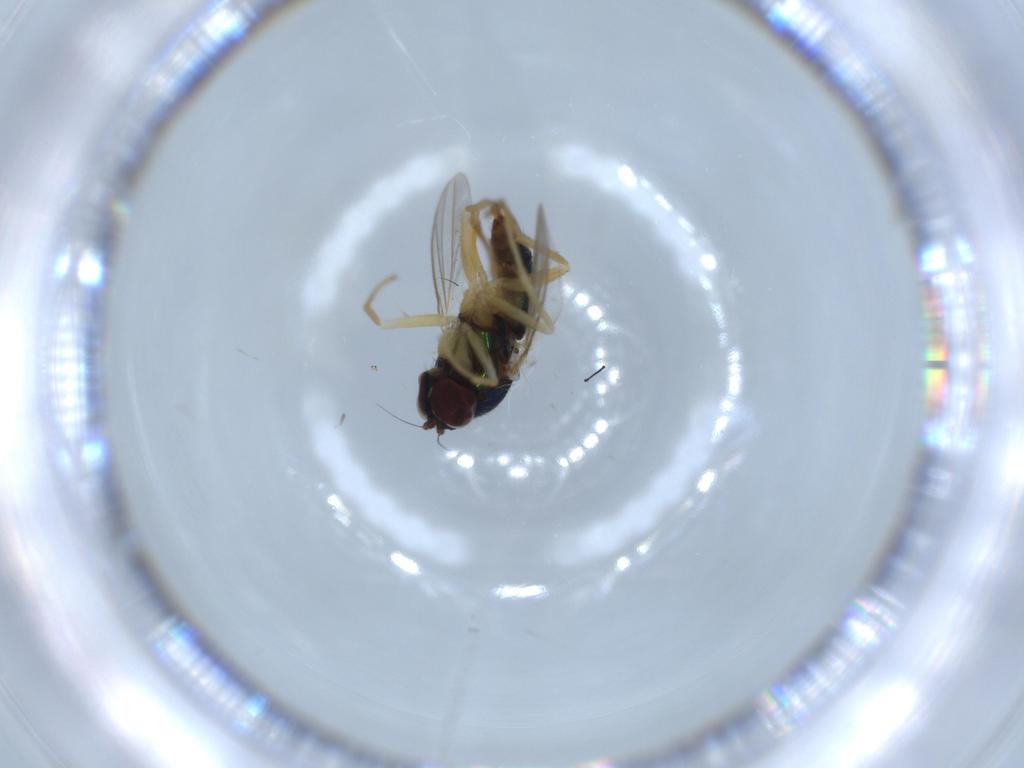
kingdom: Animalia
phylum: Arthropoda
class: Insecta
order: Diptera
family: Dolichopodidae
